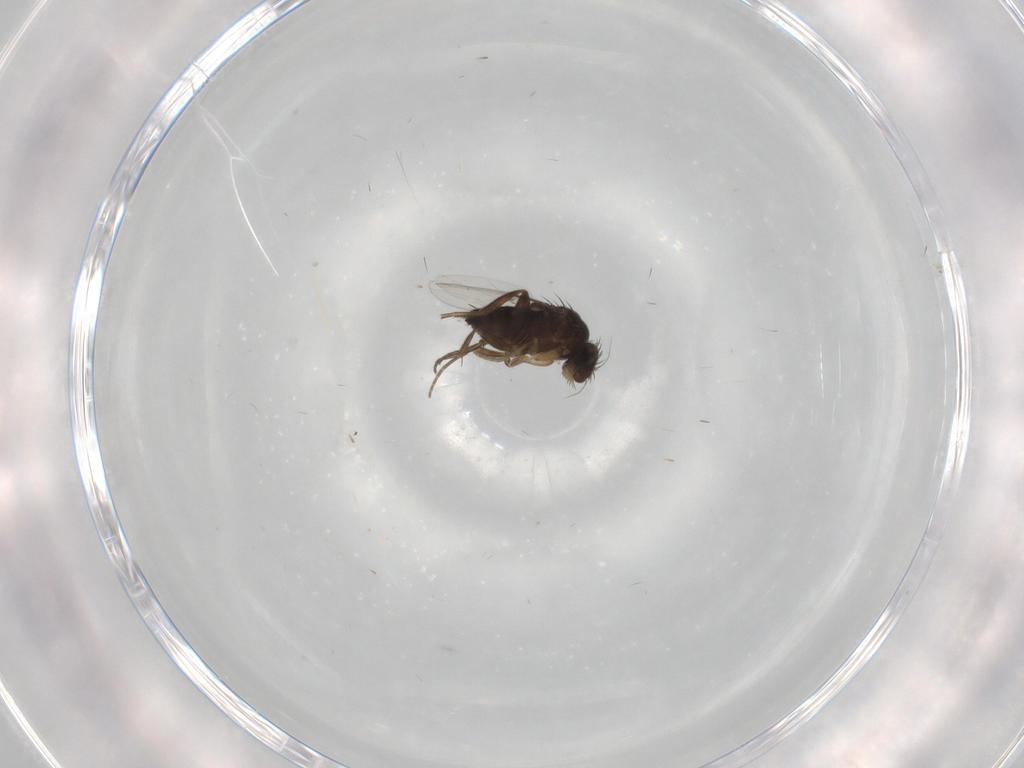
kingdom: Animalia
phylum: Arthropoda
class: Insecta
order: Diptera
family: Phoridae
